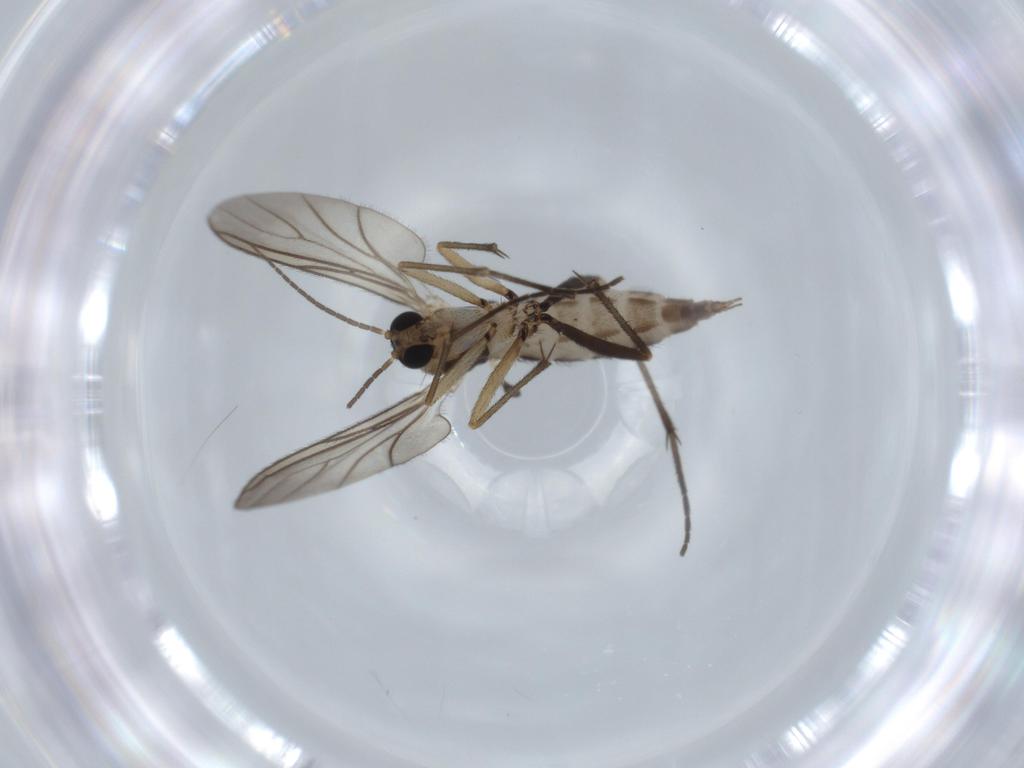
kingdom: Animalia
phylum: Arthropoda
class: Insecta
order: Diptera
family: Sciaridae
